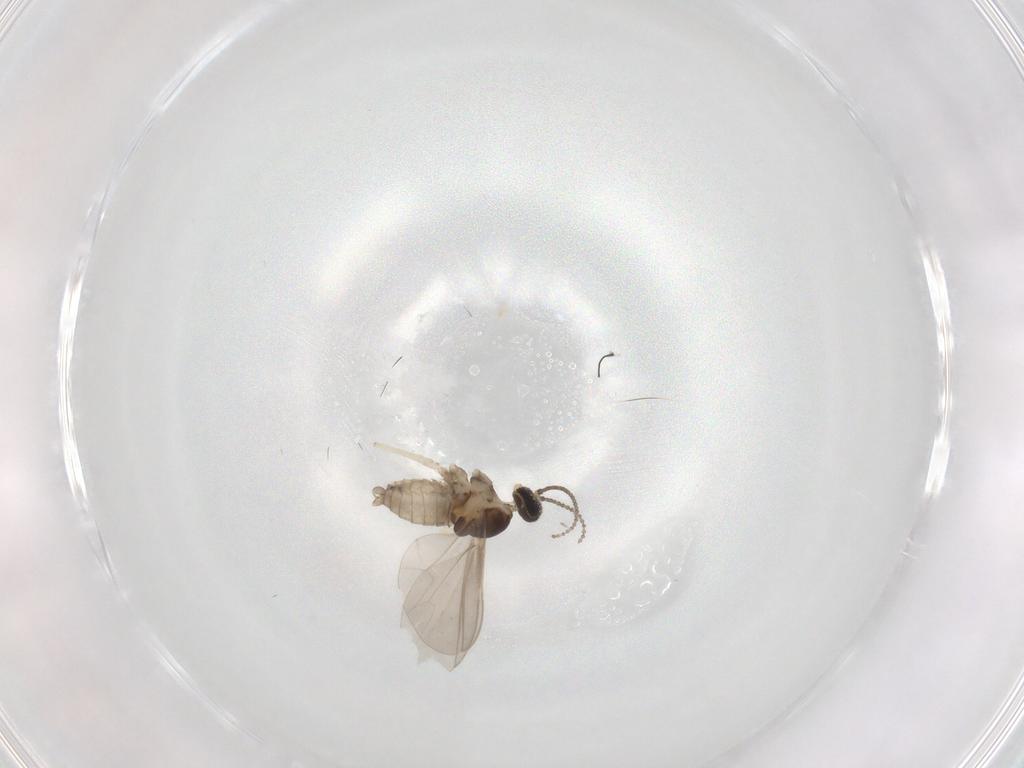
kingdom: Animalia
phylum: Arthropoda
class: Insecta
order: Diptera
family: Cecidomyiidae
